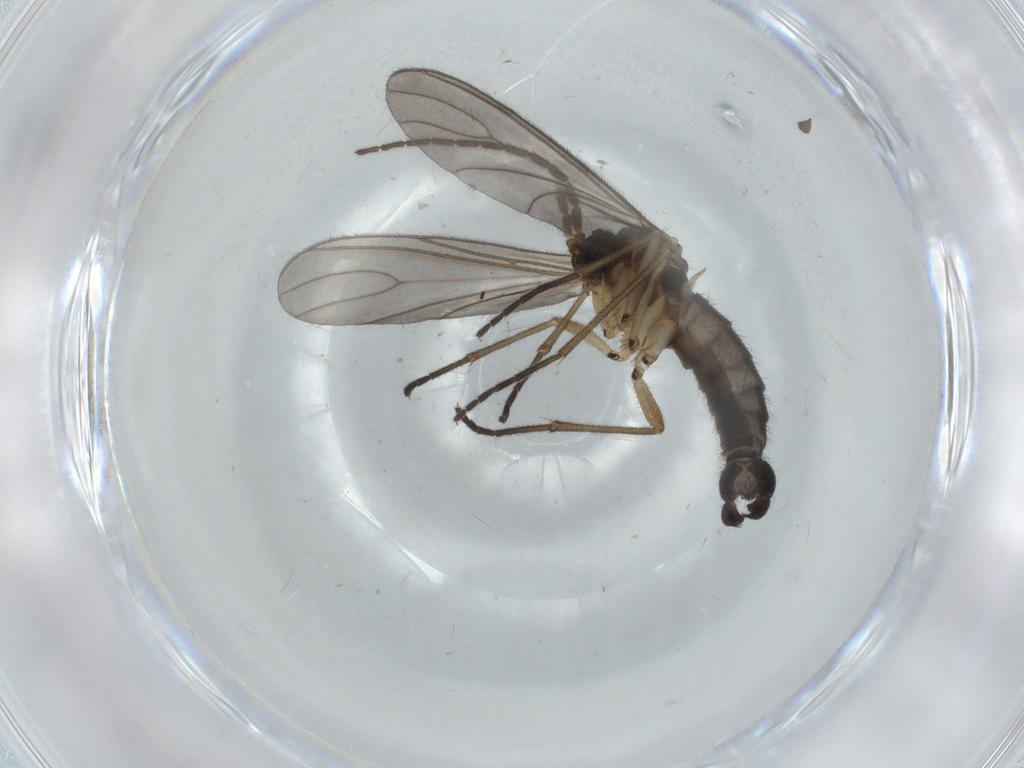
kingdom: Animalia
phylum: Arthropoda
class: Insecta
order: Diptera
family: Sciaridae
